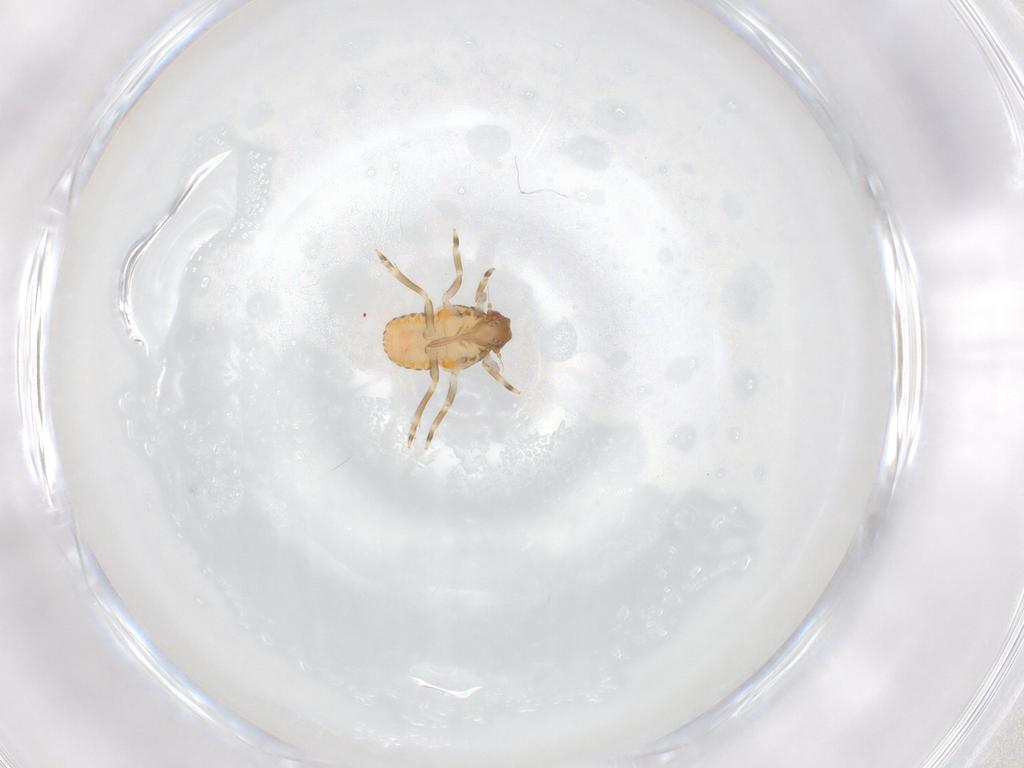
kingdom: Animalia
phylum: Arthropoda
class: Insecta
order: Hemiptera
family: Flatidae
